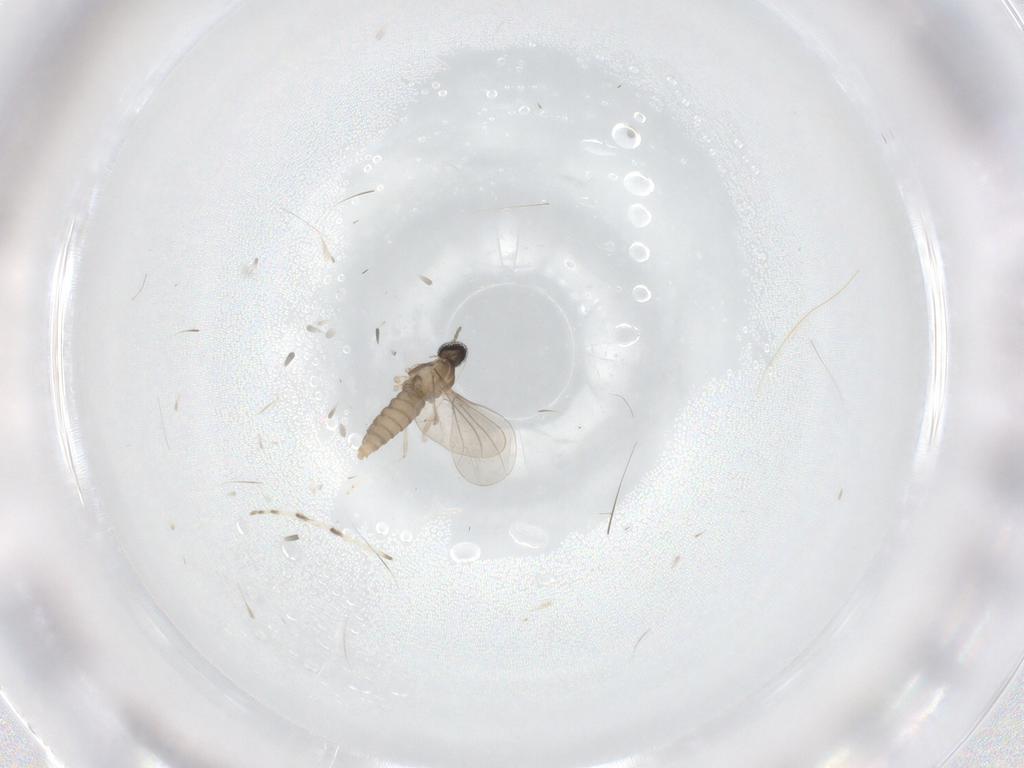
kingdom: Animalia
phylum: Arthropoda
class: Insecta
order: Diptera
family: Cecidomyiidae
